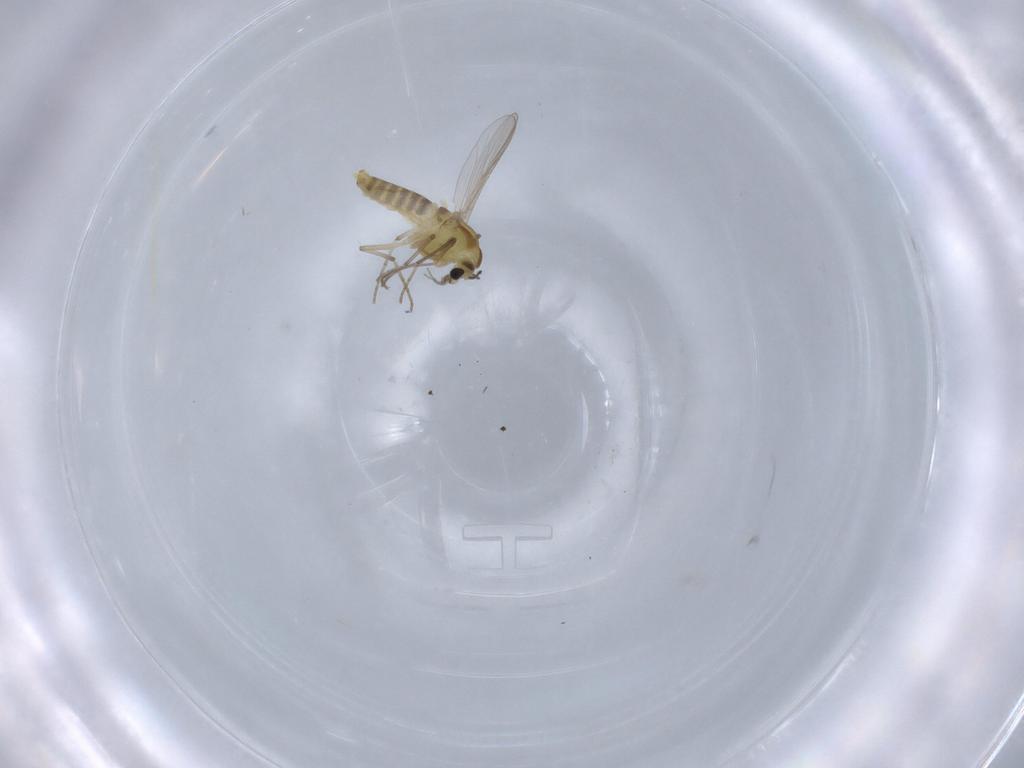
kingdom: Animalia
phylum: Arthropoda
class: Insecta
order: Diptera
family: Chironomidae
